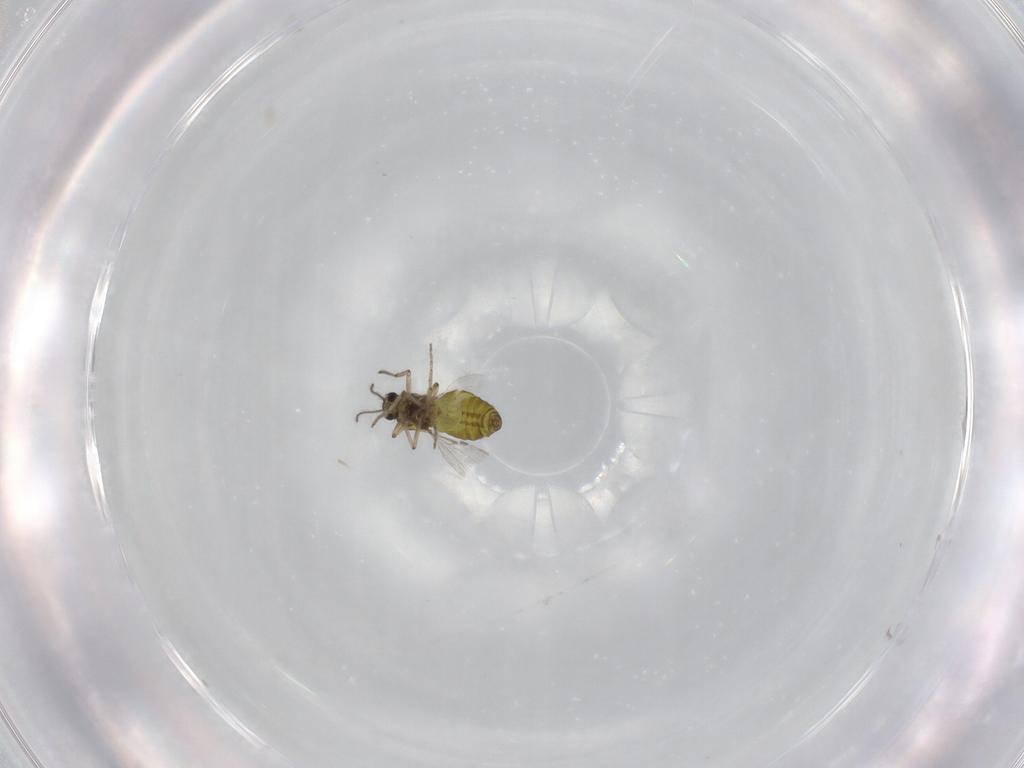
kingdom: Animalia
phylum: Arthropoda
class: Insecta
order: Diptera
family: Ceratopogonidae
